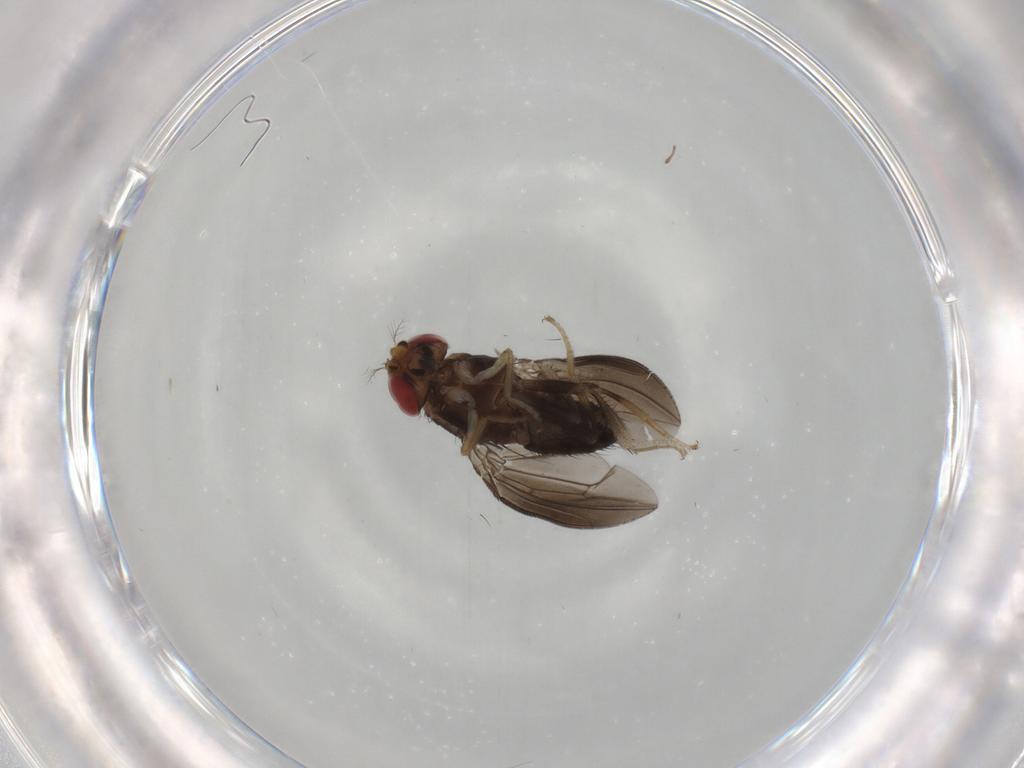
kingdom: Animalia
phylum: Arthropoda
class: Insecta
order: Diptera
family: Drosophilidae
